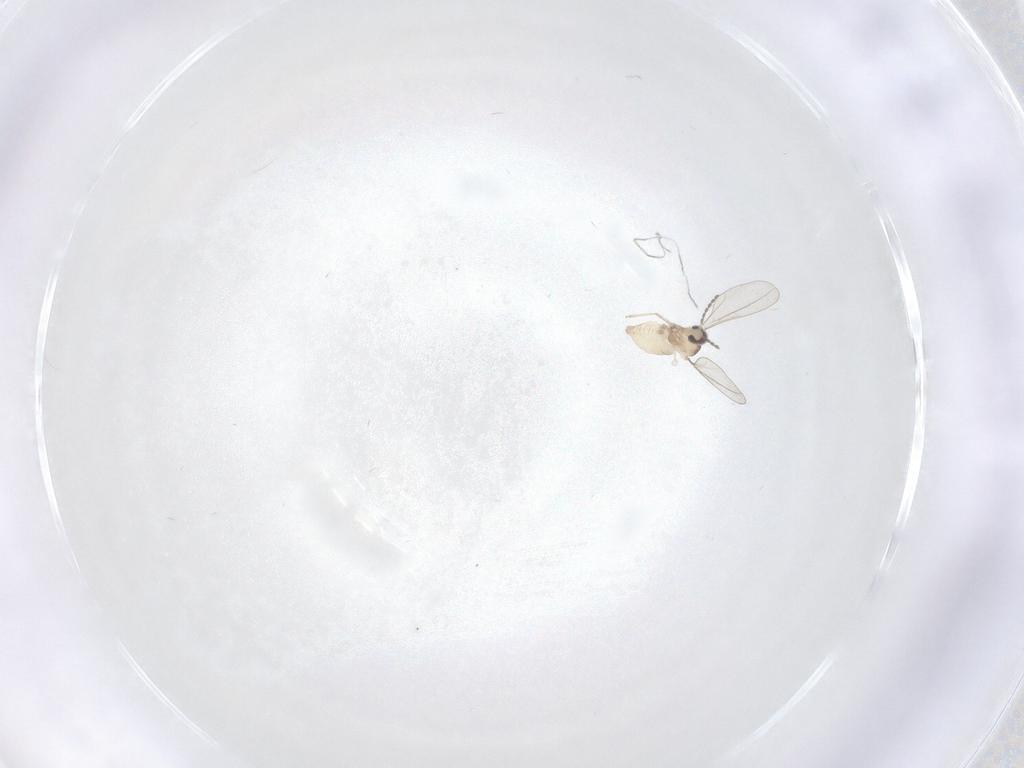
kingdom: Animalia
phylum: Arthropoda
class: Insecta
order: Diptera
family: Cecidomyiidae
